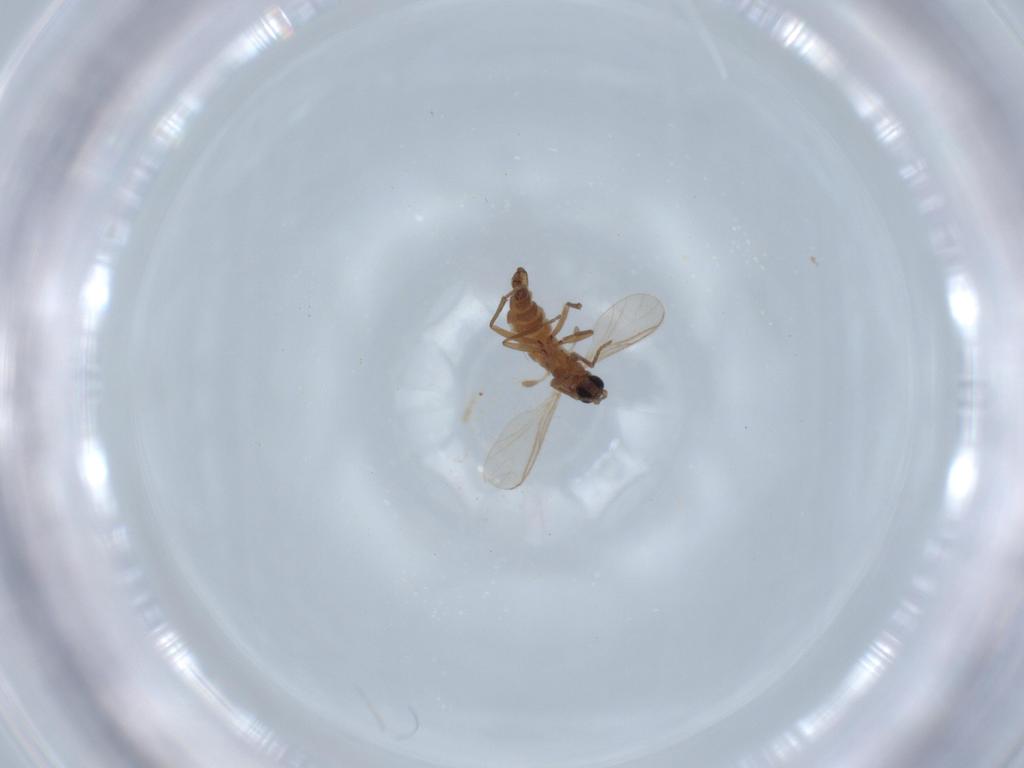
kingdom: Animalia
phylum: Arthropoda
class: Insecta
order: Diptera
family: Sciaridae
